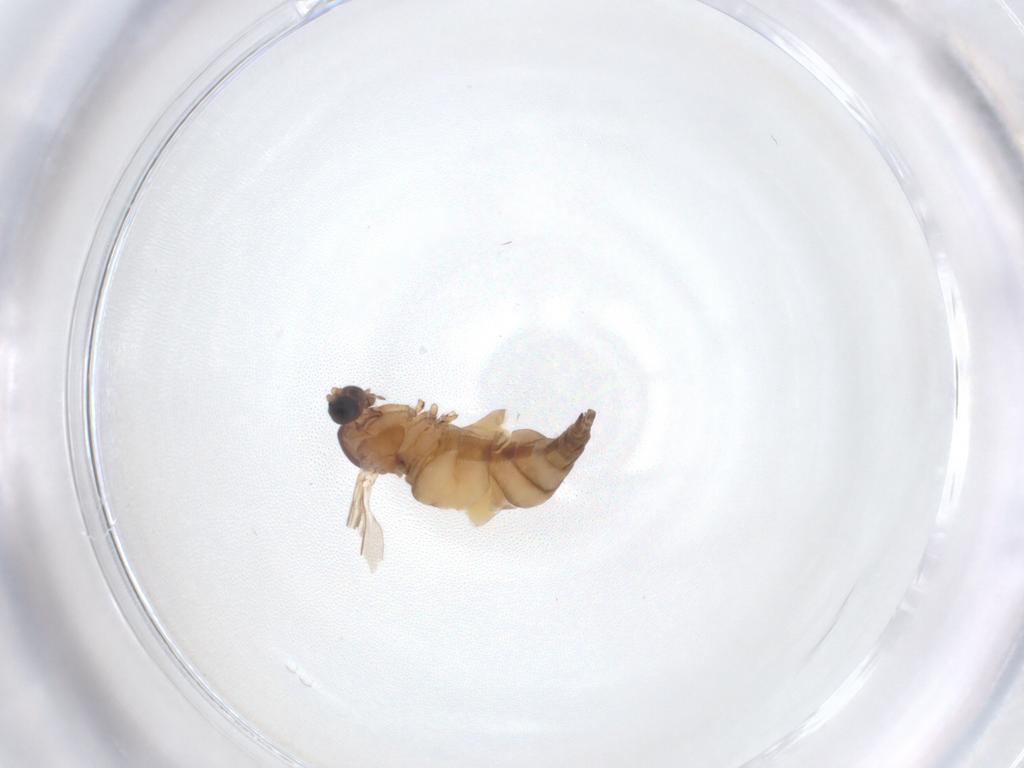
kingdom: Animalia
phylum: Arthropoda
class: Insecta
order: Diptera
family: Sciaridae
